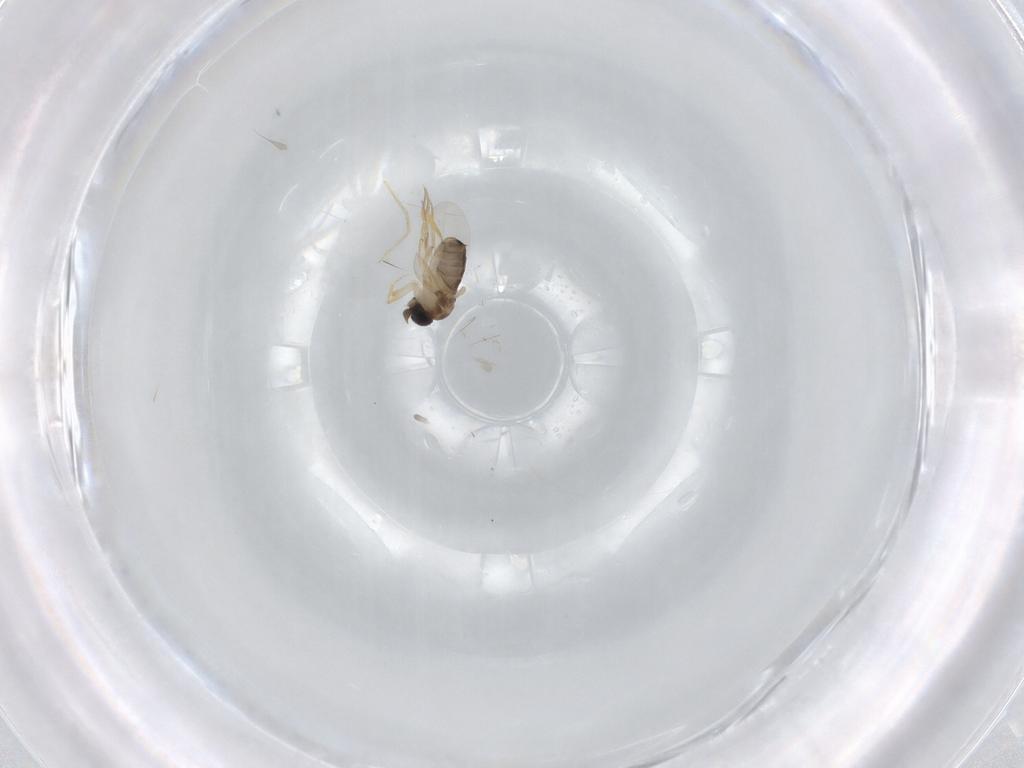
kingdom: Animalia
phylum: Arthropoda
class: Insecta
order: Diptera
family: Phoridae
